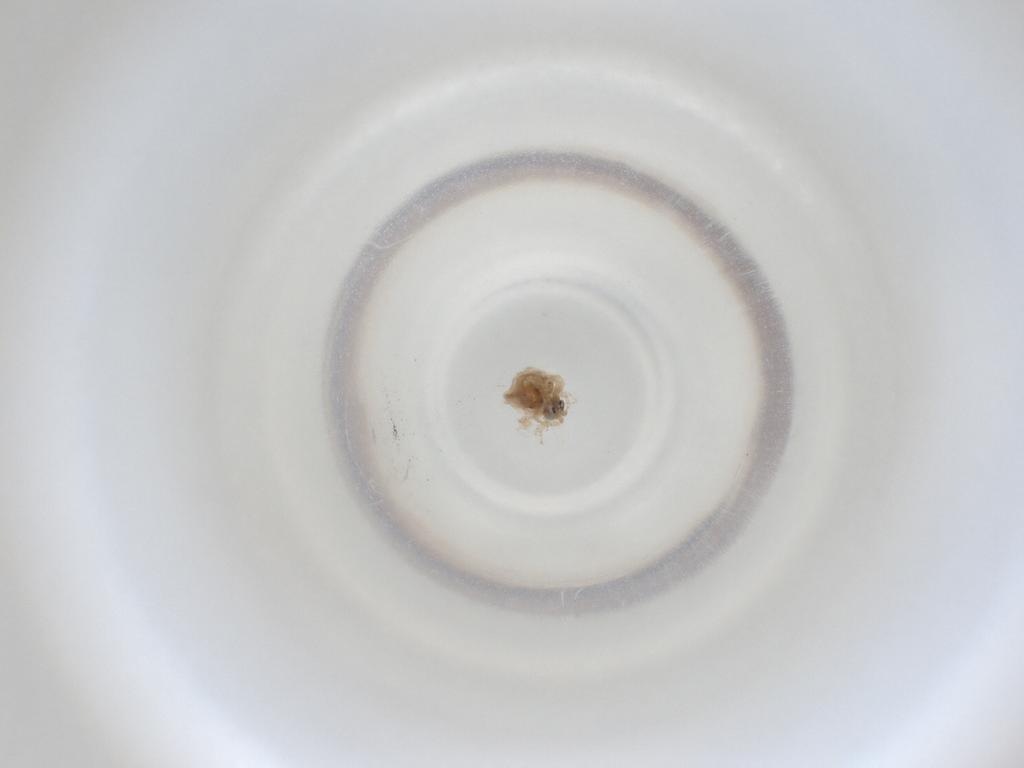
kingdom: Animalia
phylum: Arthropoda
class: Insecta
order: Diptera
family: Cecidomyiidae
